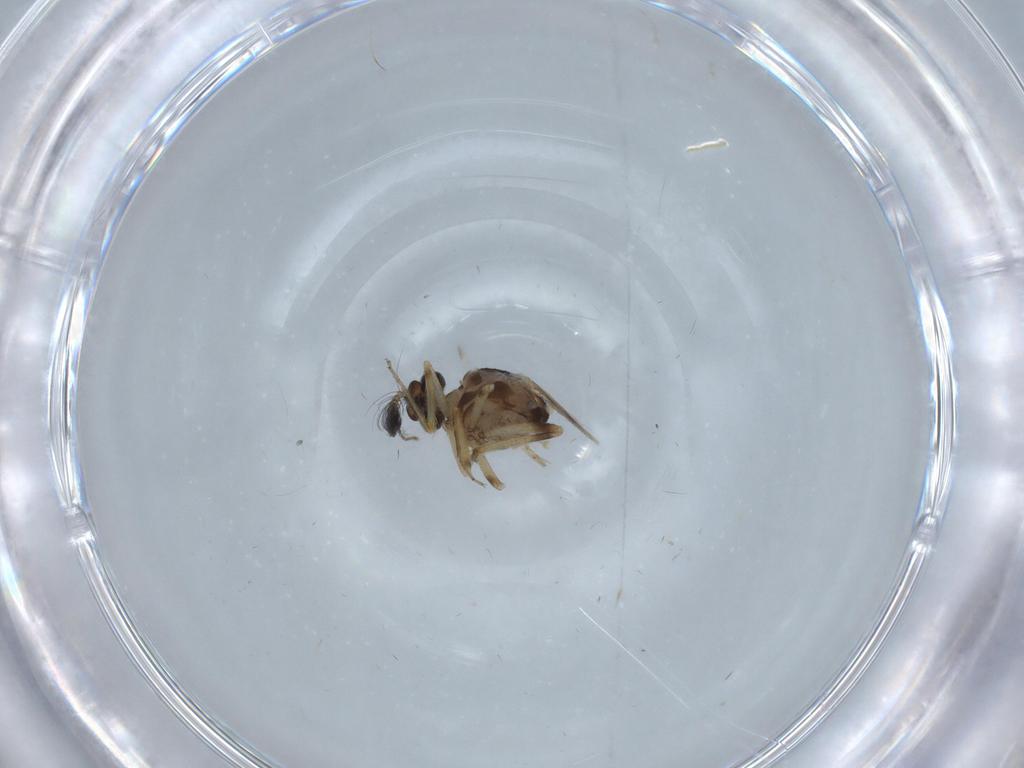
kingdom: Animalia
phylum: Arthropoda
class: Insecta
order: Diptera
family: Ceratopogonidae
